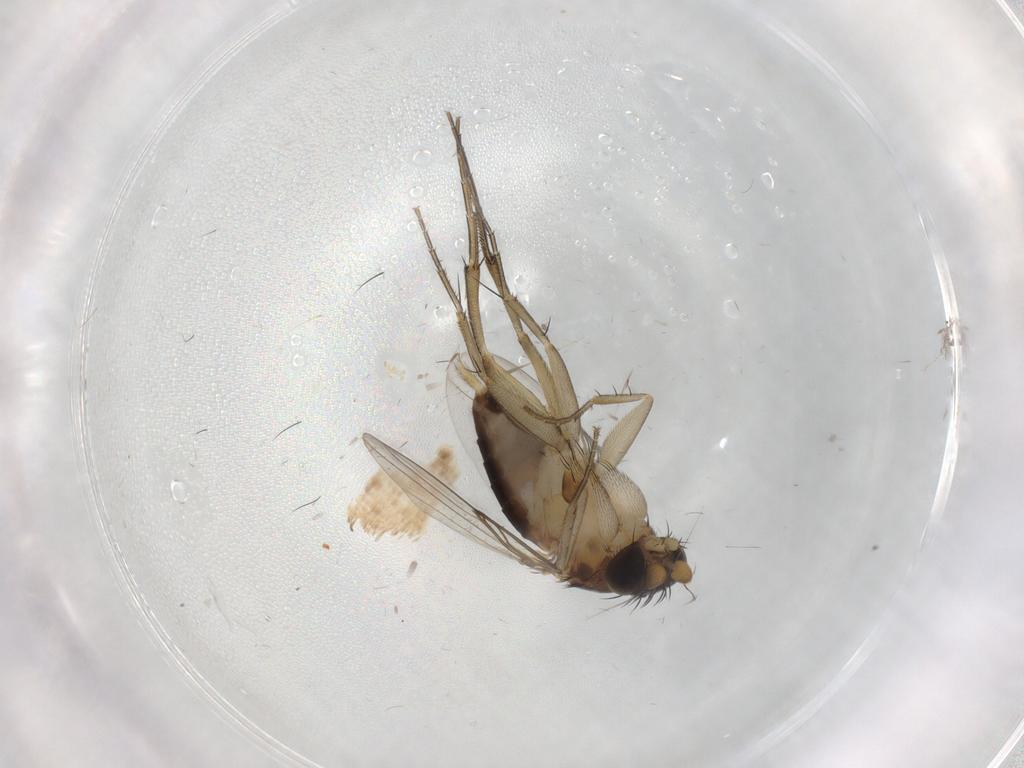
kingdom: Animalia
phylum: Arthropoda
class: Insecta
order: Diptera
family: Phoridae
